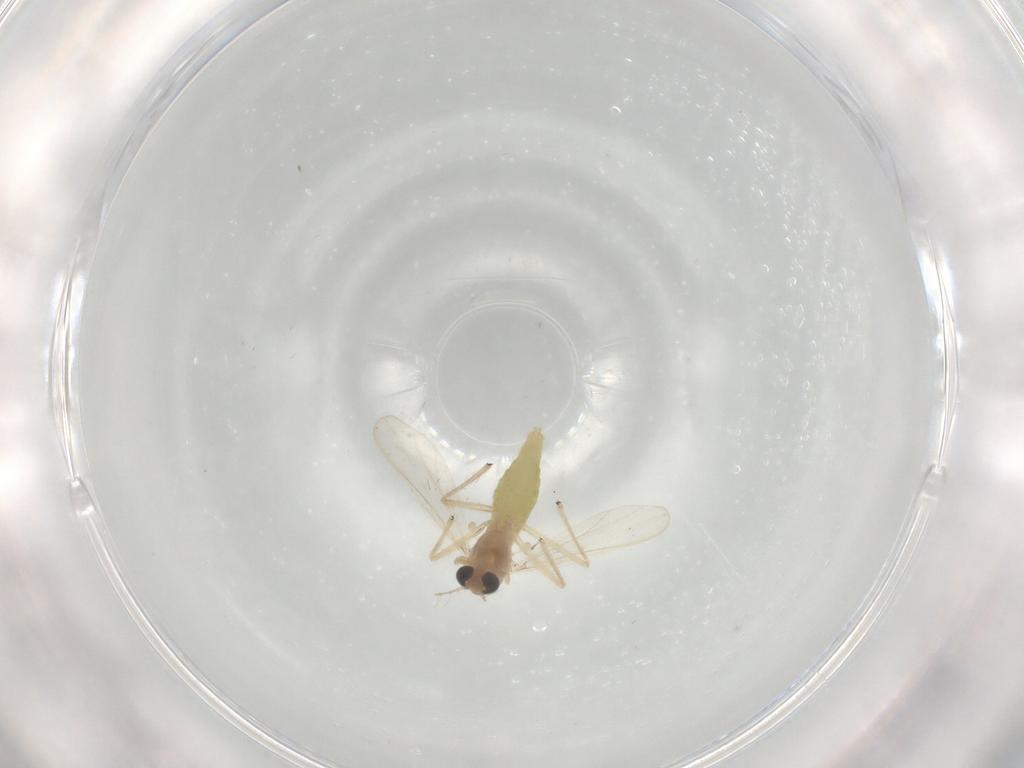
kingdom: Animalia
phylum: Arthropoda
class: Insecta
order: Diptera
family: Chironomidae
